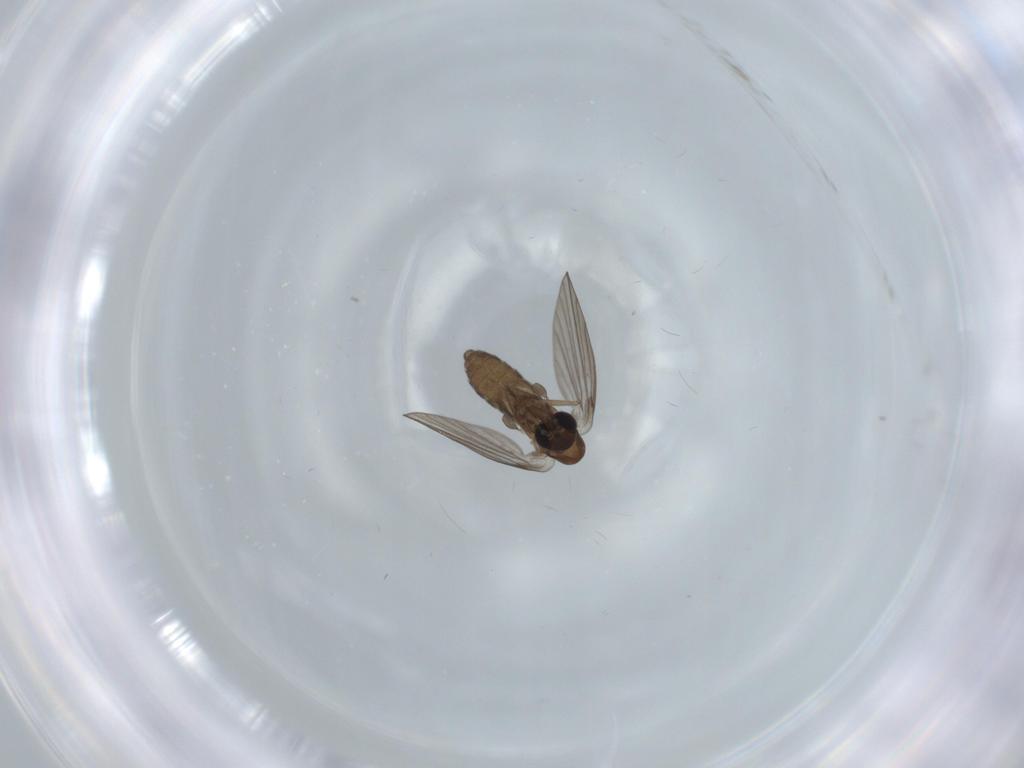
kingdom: Animalia
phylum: Arthropoda
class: Insecta
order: Diptera
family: Psychodidae
